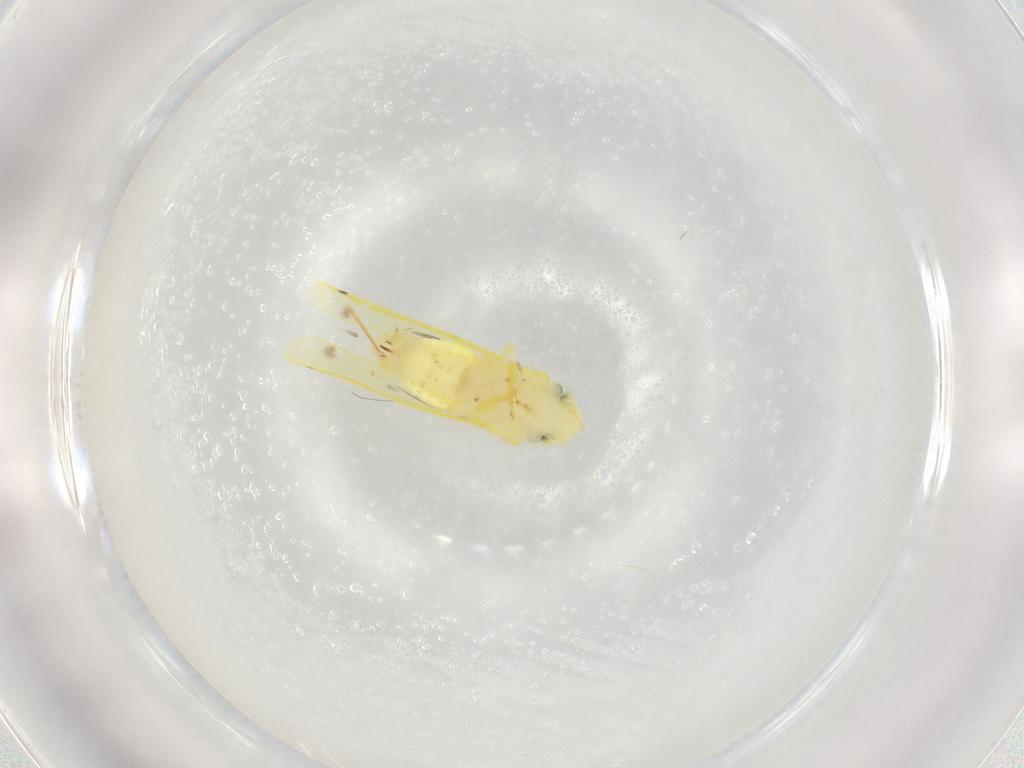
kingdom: Animalia
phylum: Arthropoda
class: Insecta
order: Hemiptera
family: Cicadellidae
